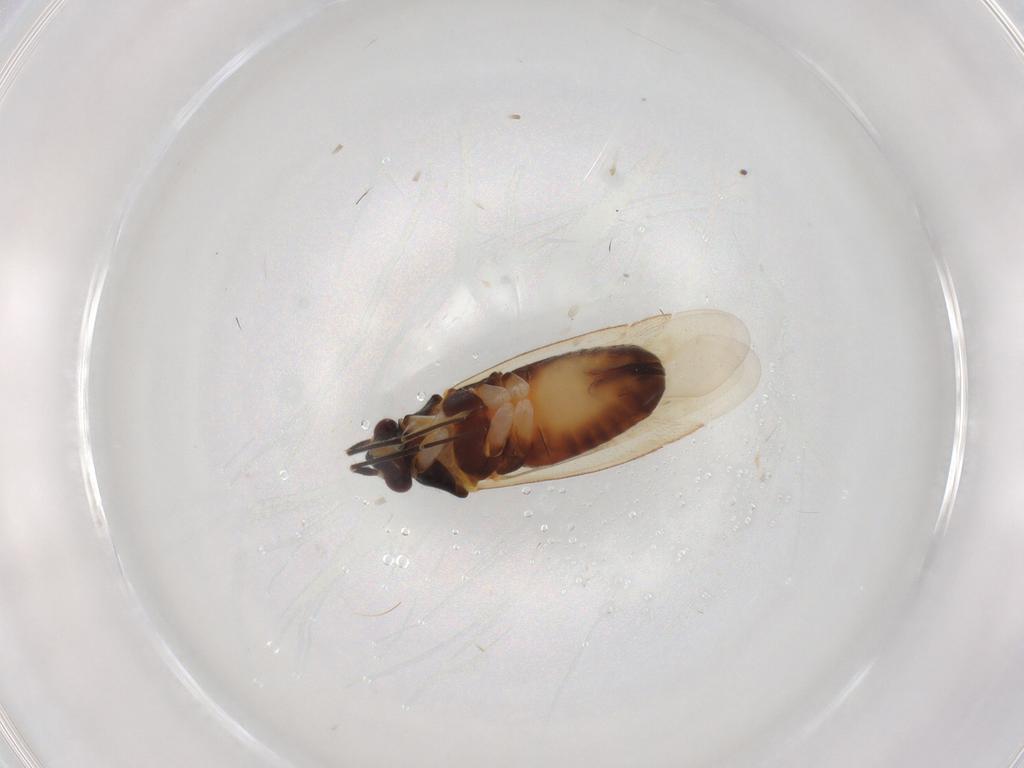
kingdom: Animalia
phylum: Arthropoda
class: Insecta
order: Hemiptera
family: Miridae
